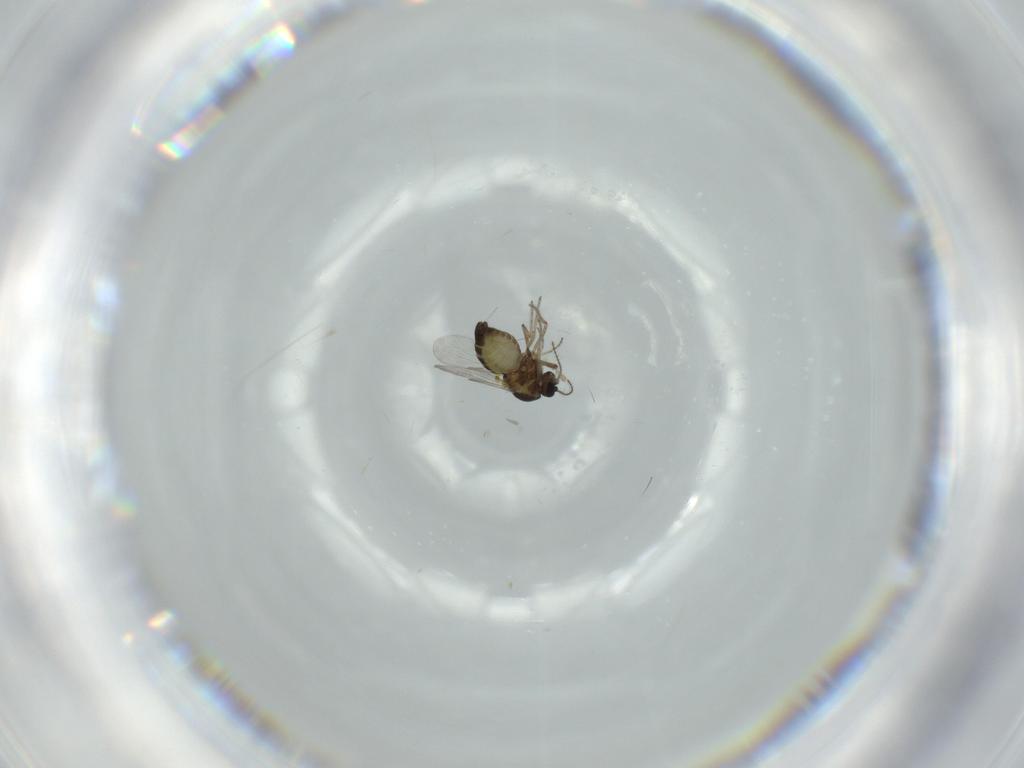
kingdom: Animalia
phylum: Arthropoda
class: Insecta
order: Diptera
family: Ceratopogonidae
